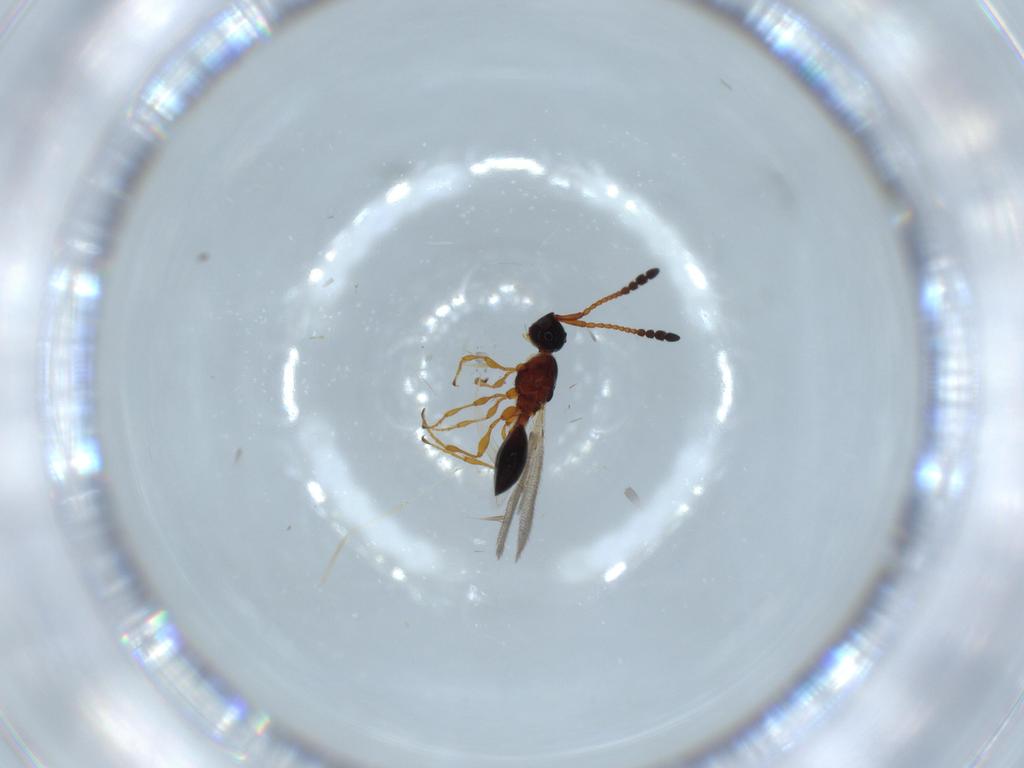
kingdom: Animalia
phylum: Arthropoda
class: Insecta
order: Hymenoptera
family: Diapriidae
